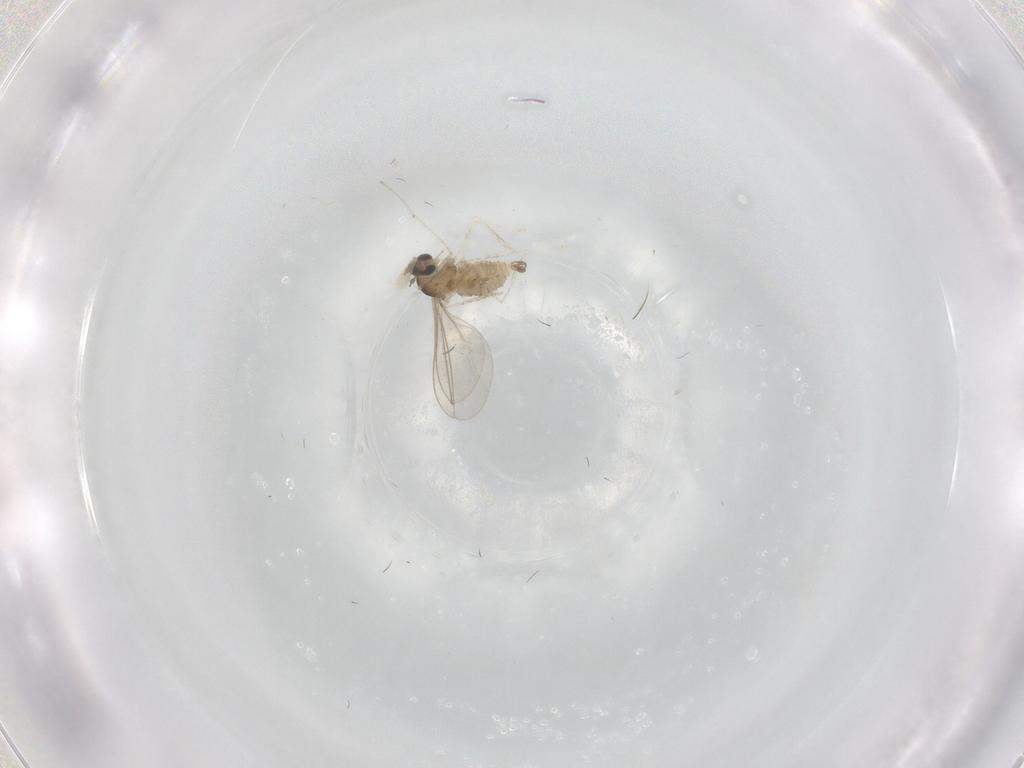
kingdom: Animalia
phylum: Arthropoda
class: Insecta
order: Diptera
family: Cecidomyiidae
